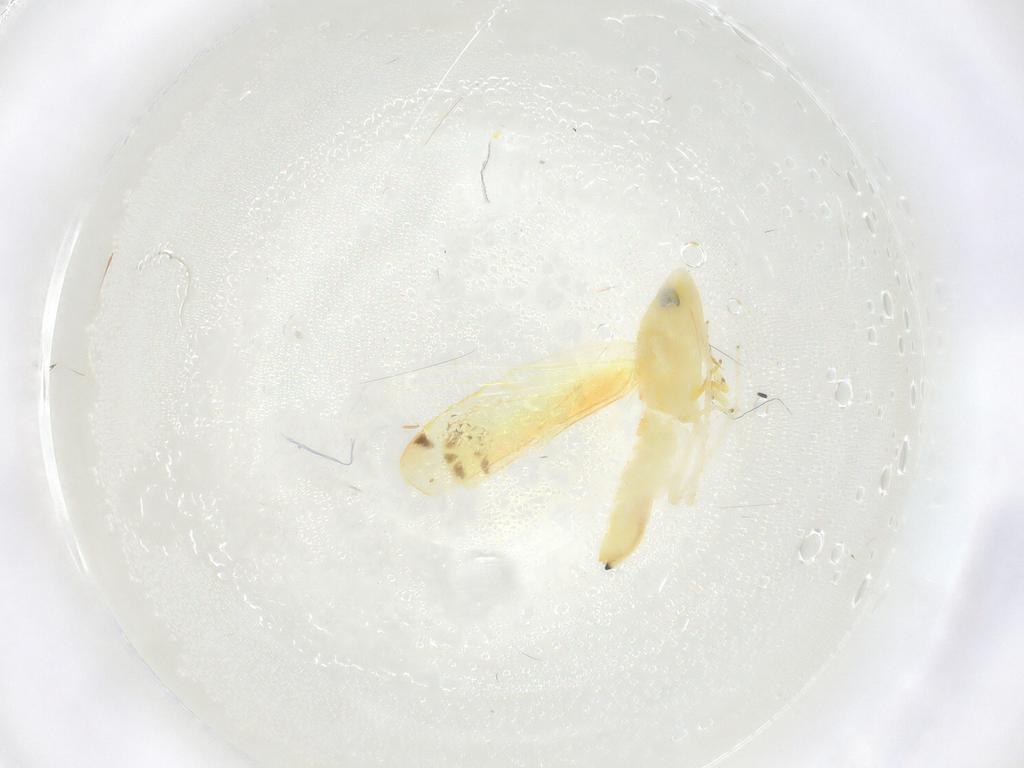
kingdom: Animalia
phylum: Arthropoda
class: Insecta
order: Hemiptera
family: Cicadellidae
